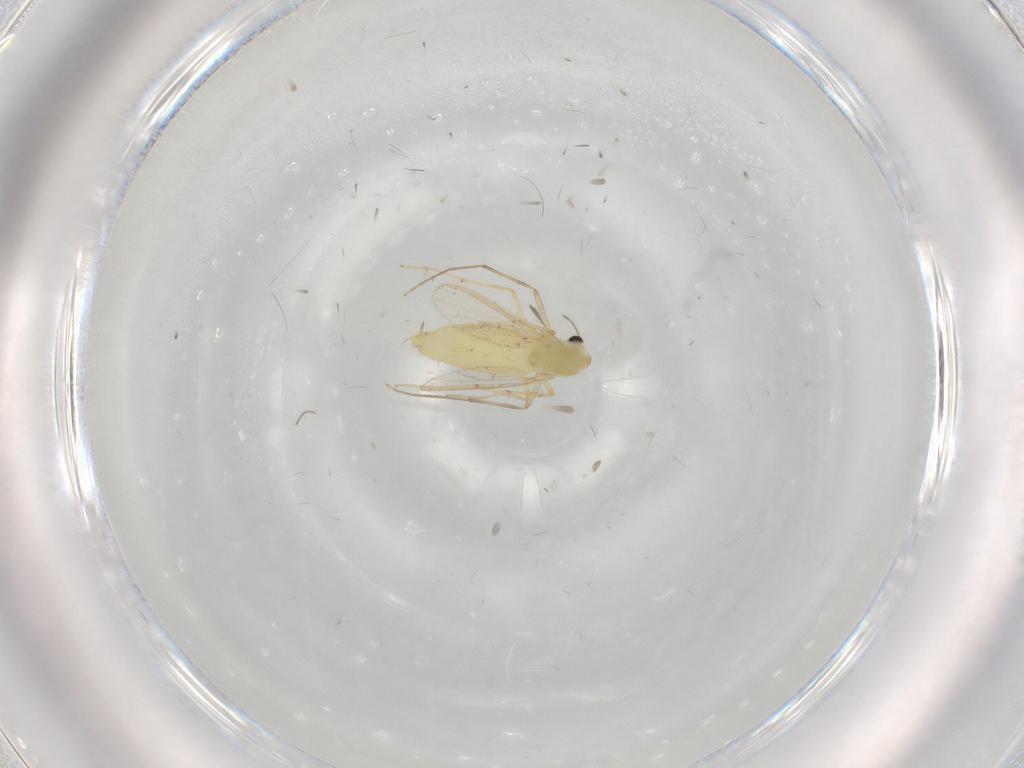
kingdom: Animalia
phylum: Arthropoda
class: Insecta
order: Diptera
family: Chironomidae
